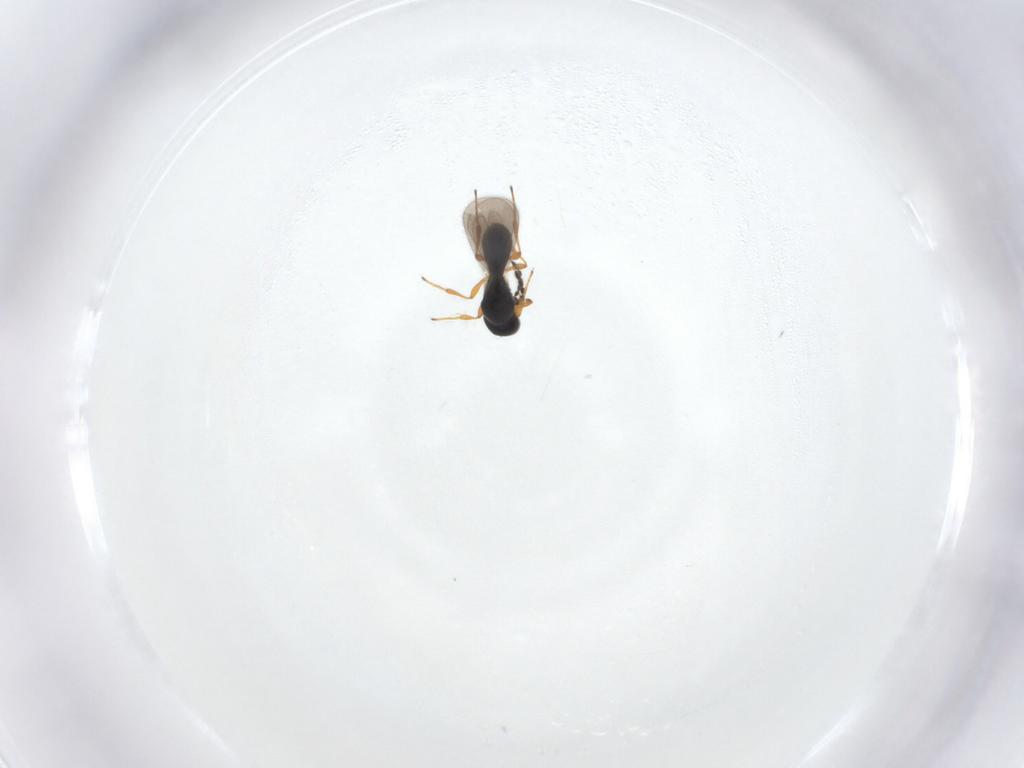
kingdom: Animalia
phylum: Arthropoda
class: Insecta
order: Hymenoptera
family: Platygastridae
